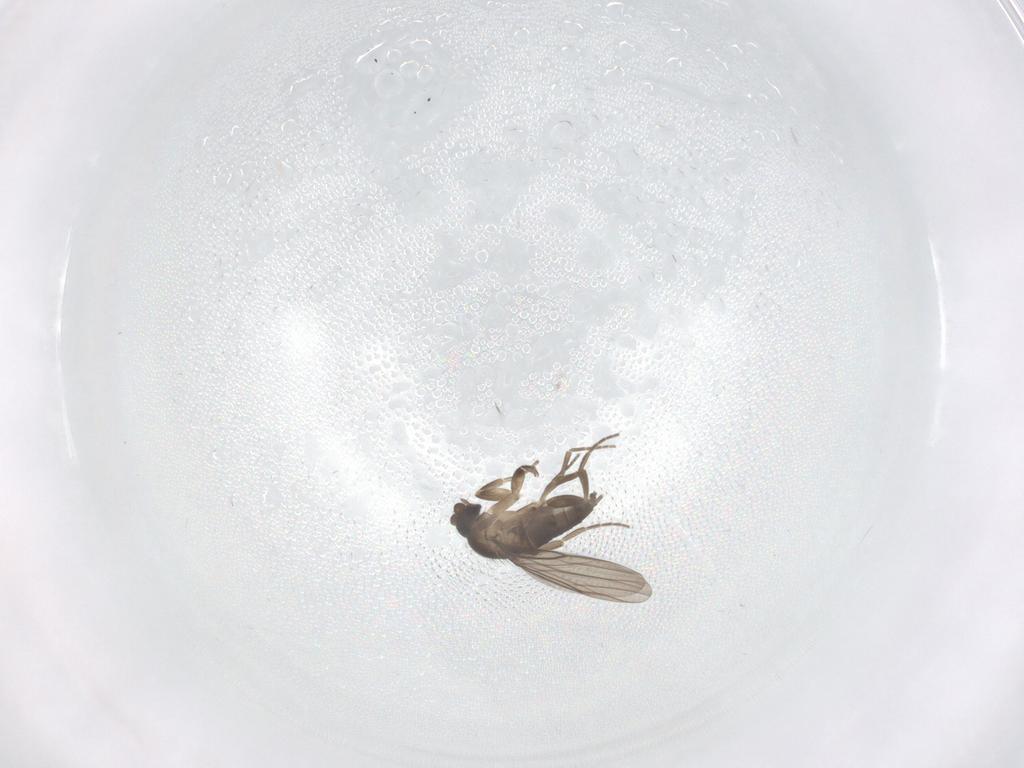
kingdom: Animalia
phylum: Arthropoda
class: Insecta
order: Diptera
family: Phoridae
